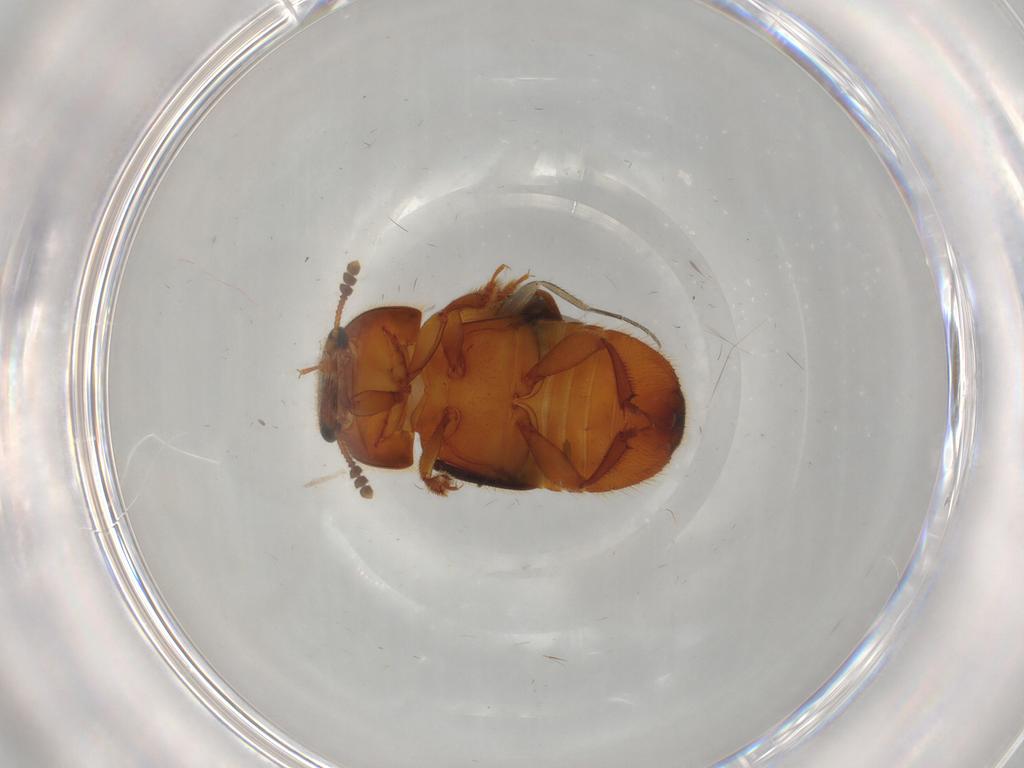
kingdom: Animalia
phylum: Arthropoda
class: Insecta
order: Coleoptera
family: Nitidulidae
